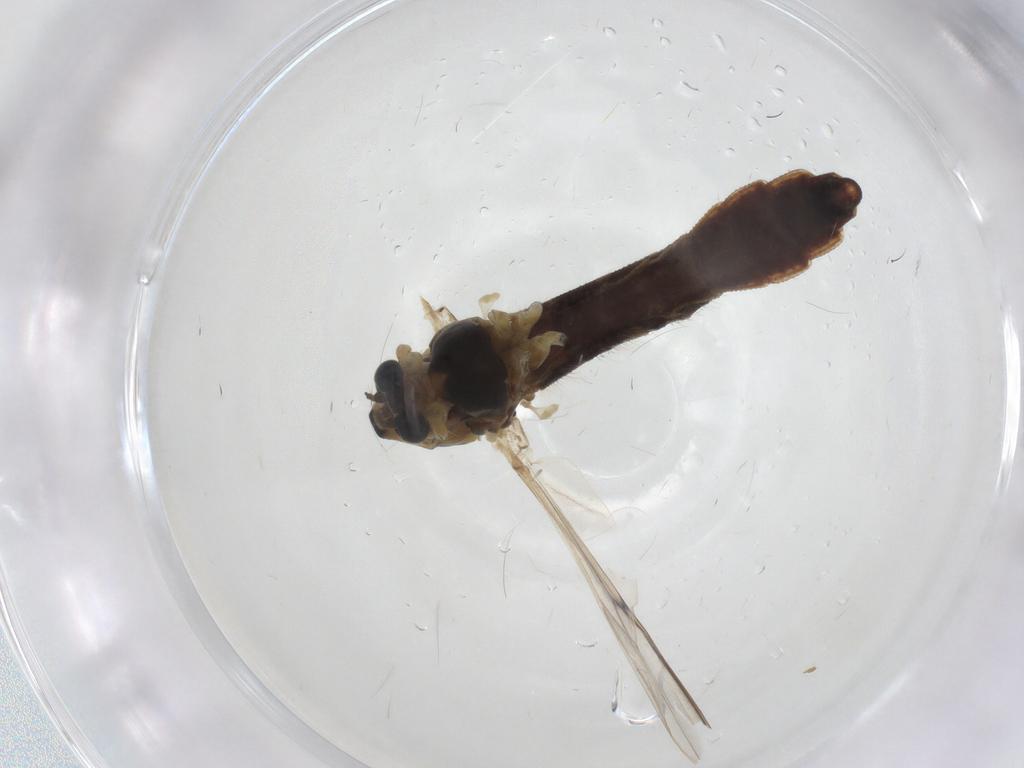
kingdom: Animalia
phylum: Arthropoda
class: Insecta
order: Diptera
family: Chironomidae
